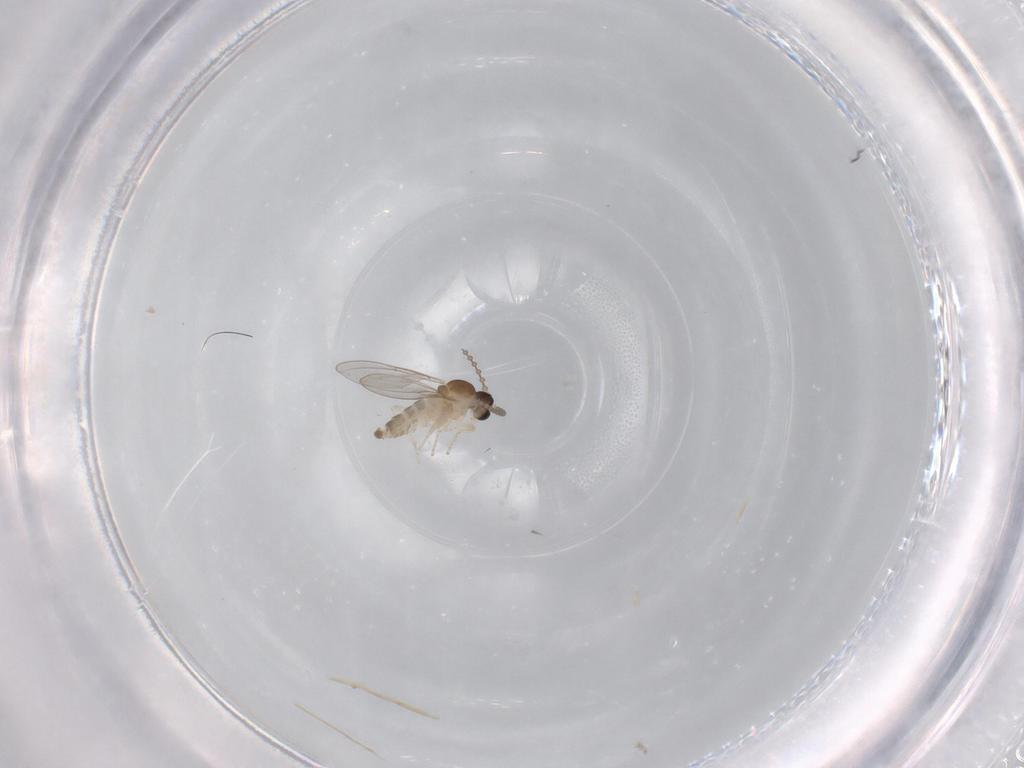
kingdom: Animalia
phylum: Arthropoda
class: Insecta
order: Diptera
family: Cecidomyiidae
